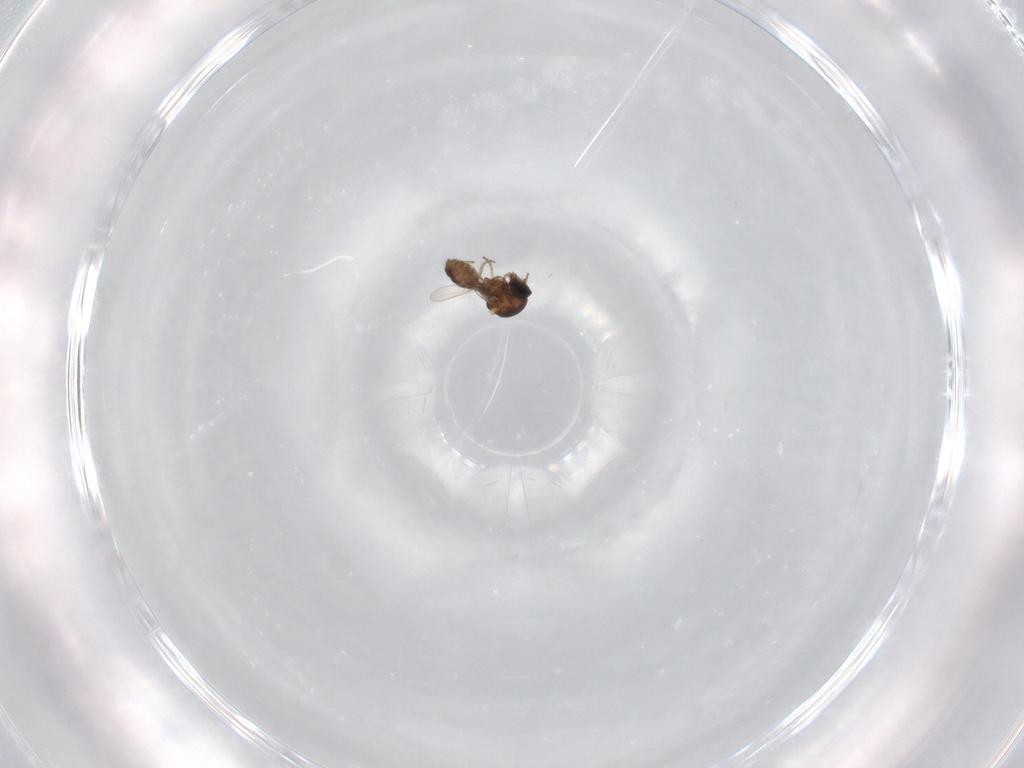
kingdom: Animalia
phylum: Arthropoda
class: Insecta
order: Diptera
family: Ceratopogonidae
